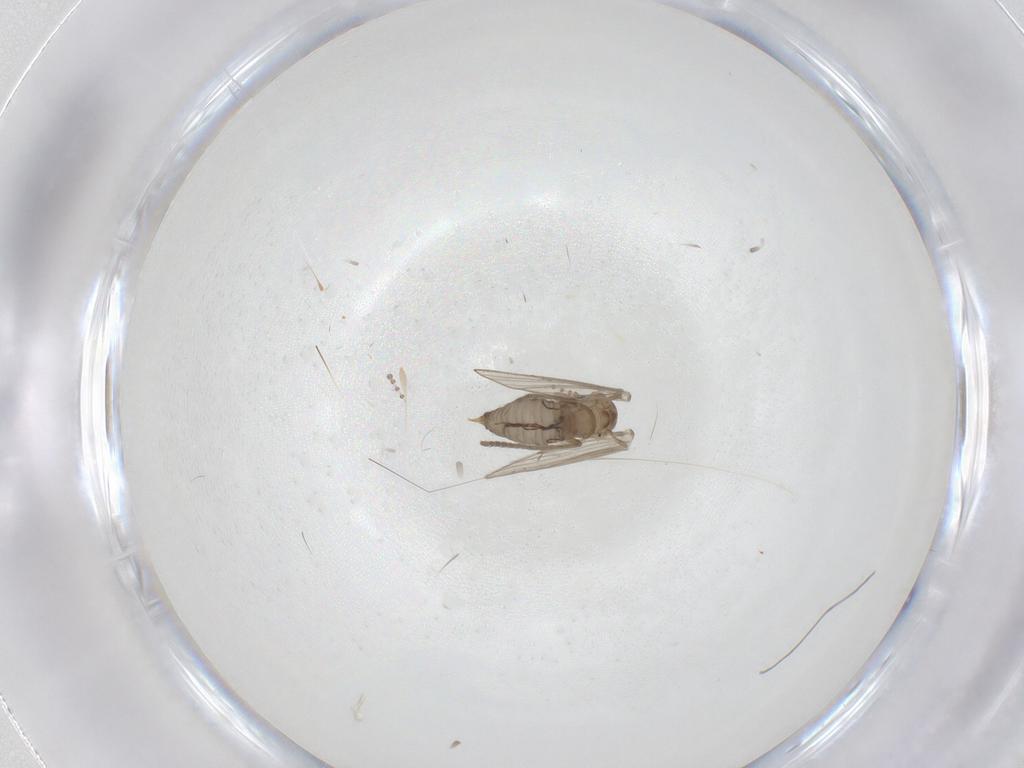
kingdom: Animalia
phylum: Arthropoda
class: Insecta
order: Diptera
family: Psychodidae
